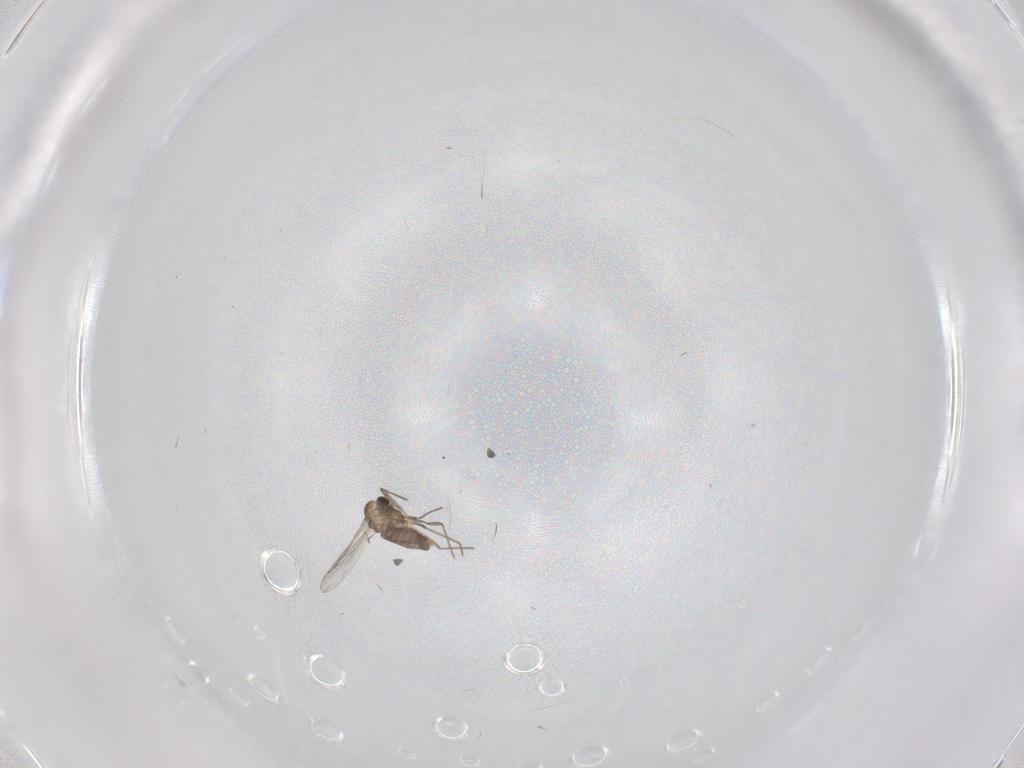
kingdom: Animalia
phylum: Arthropoda
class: Insecta
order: Diptera
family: Chironomidae
